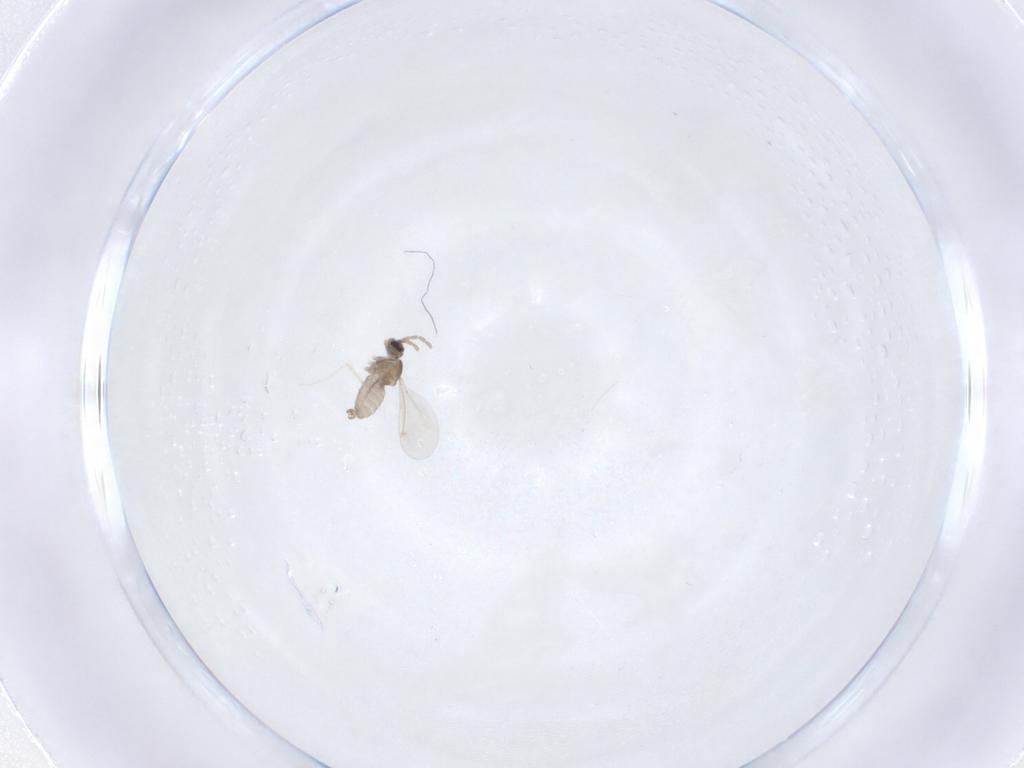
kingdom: Animalia
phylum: Arthropoda
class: Insecta
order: Diptera
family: Cecidomyiidae
